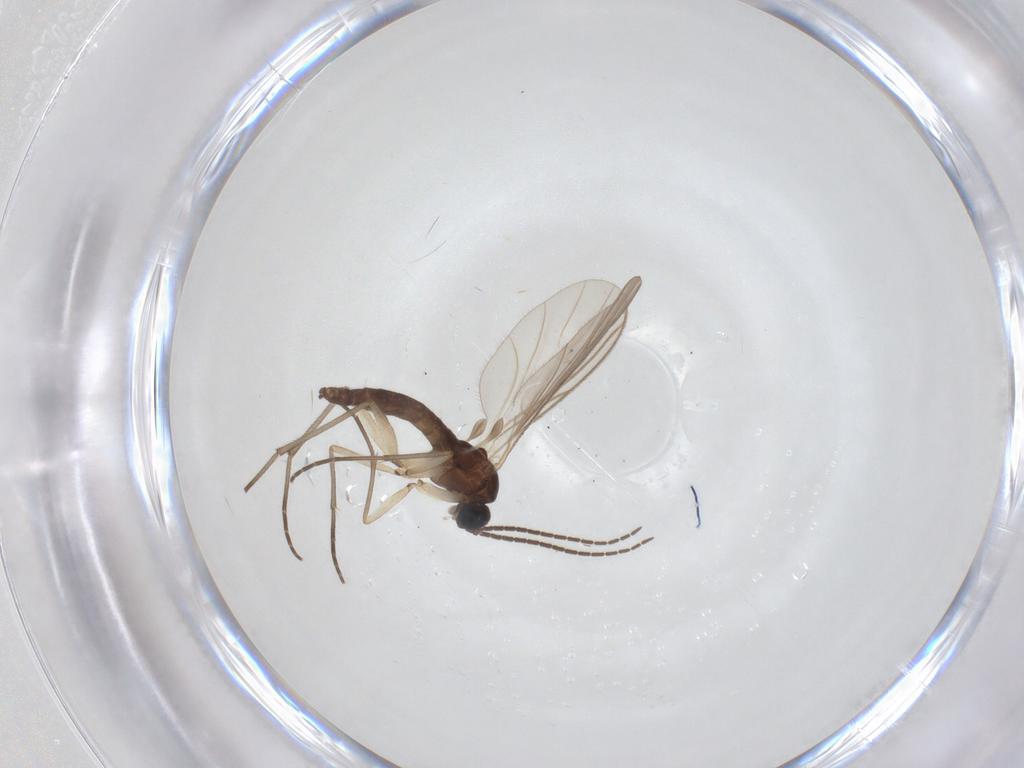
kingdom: Animalia
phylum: Arthropoda
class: Insecta
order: Diptera
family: Sciaridae
